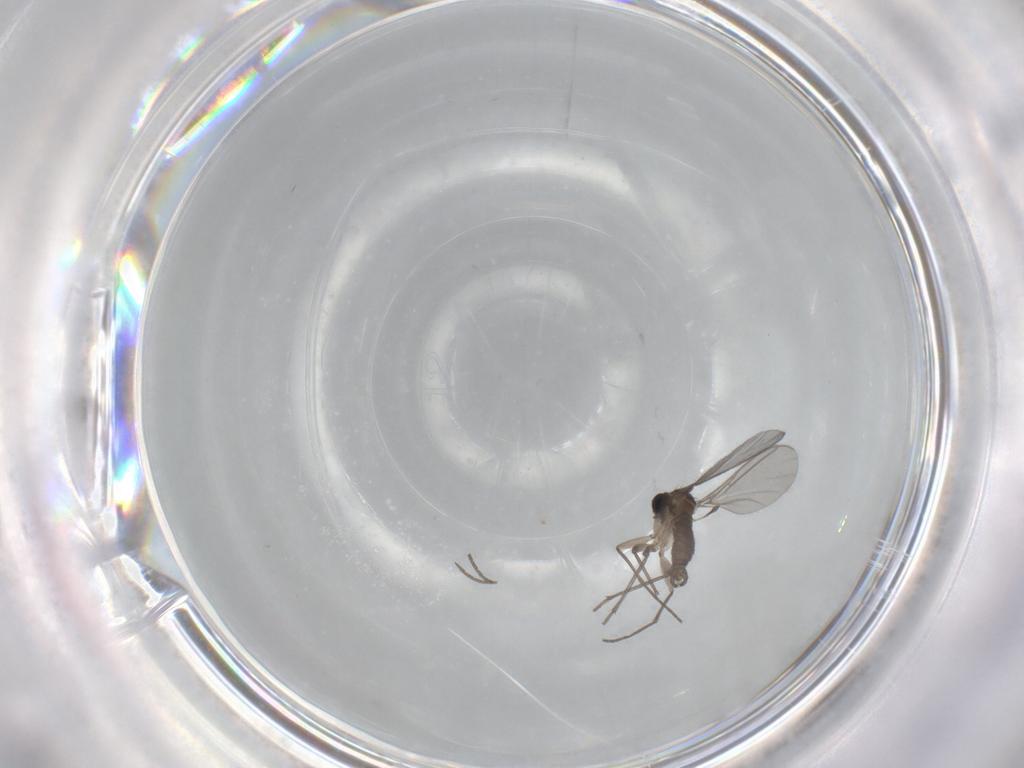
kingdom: Animalia
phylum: Arthropoda
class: Insecta
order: Diptera
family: Sciaridae
